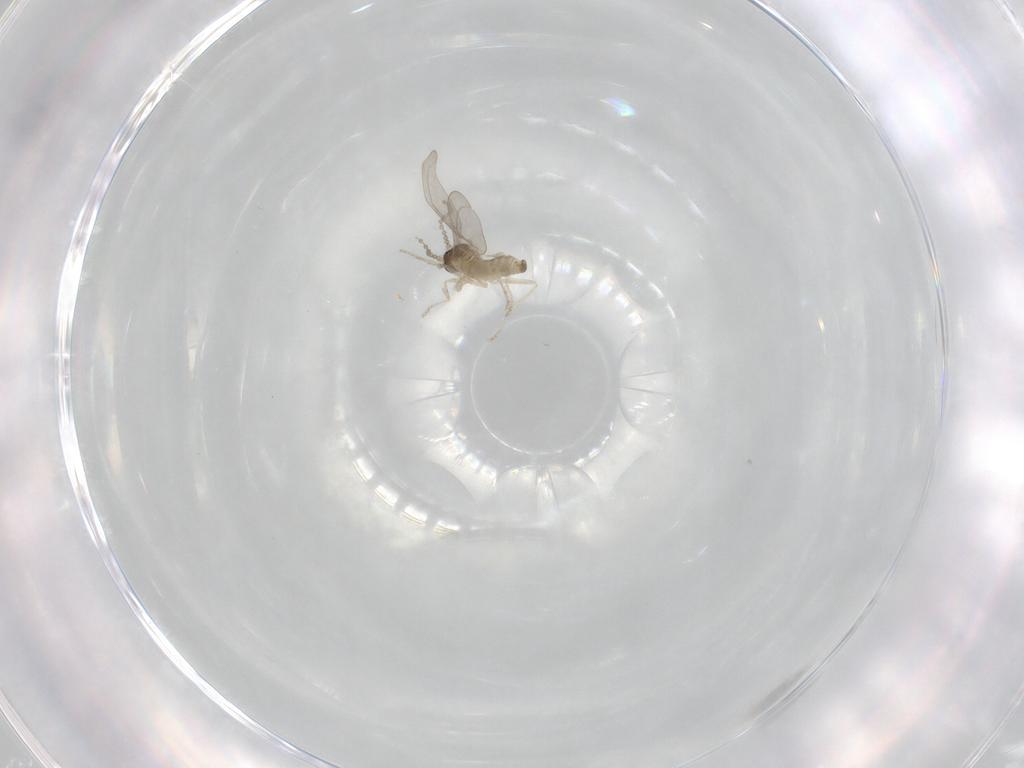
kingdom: Animalia
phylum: Arthropoda
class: Insecta
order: Diptera
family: Cecidomyiidae
